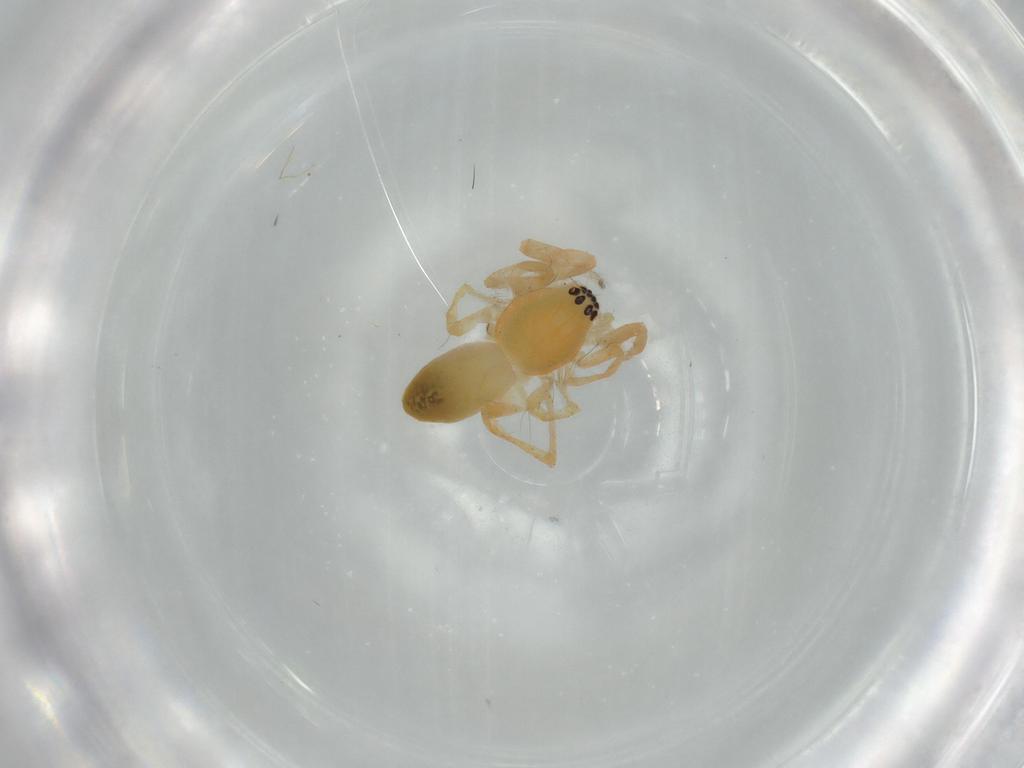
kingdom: Animalia
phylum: Arthropoda
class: Arachnida
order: Araneae
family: Anyphaenidae
